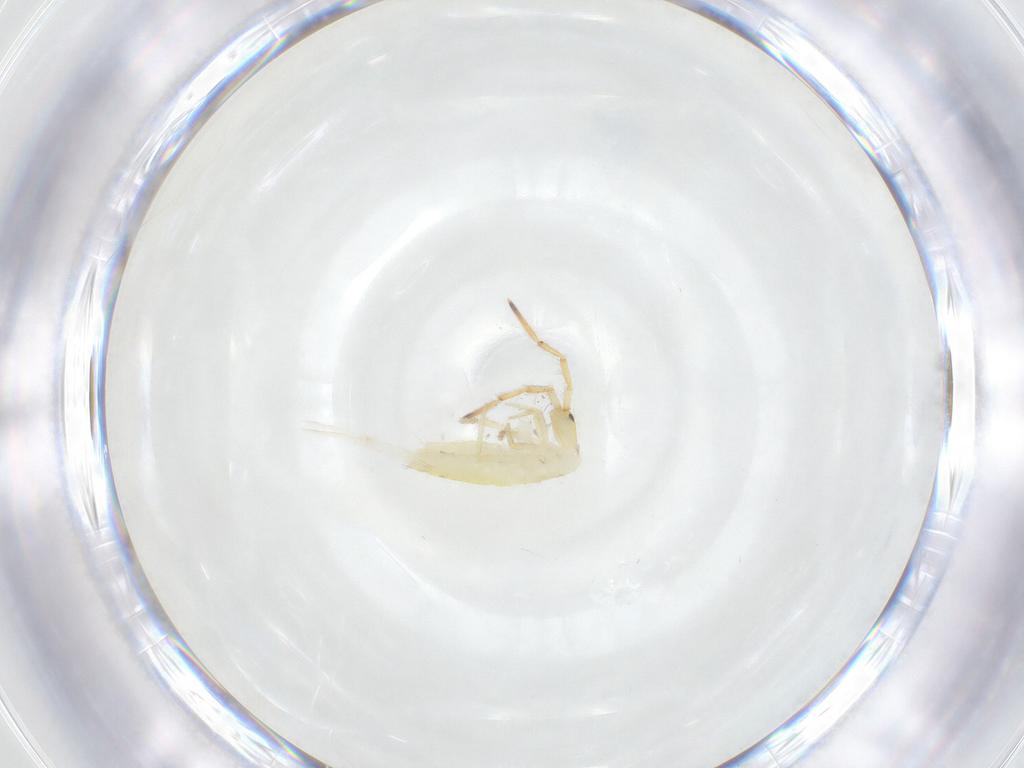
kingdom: Animalia
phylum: Arthropoda
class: Collembola
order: Entomobryomorpha
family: Entomobryidae
